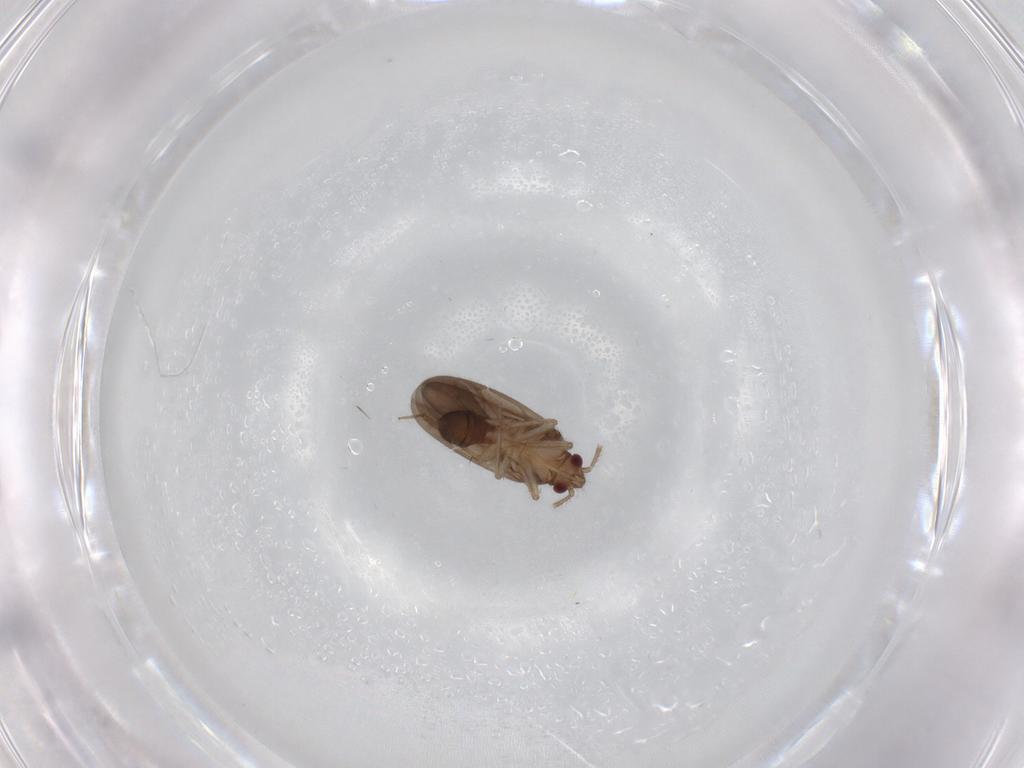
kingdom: Animalia
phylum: Arthropoda
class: Insecta
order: Hemiptera
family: Ceratocombidae
